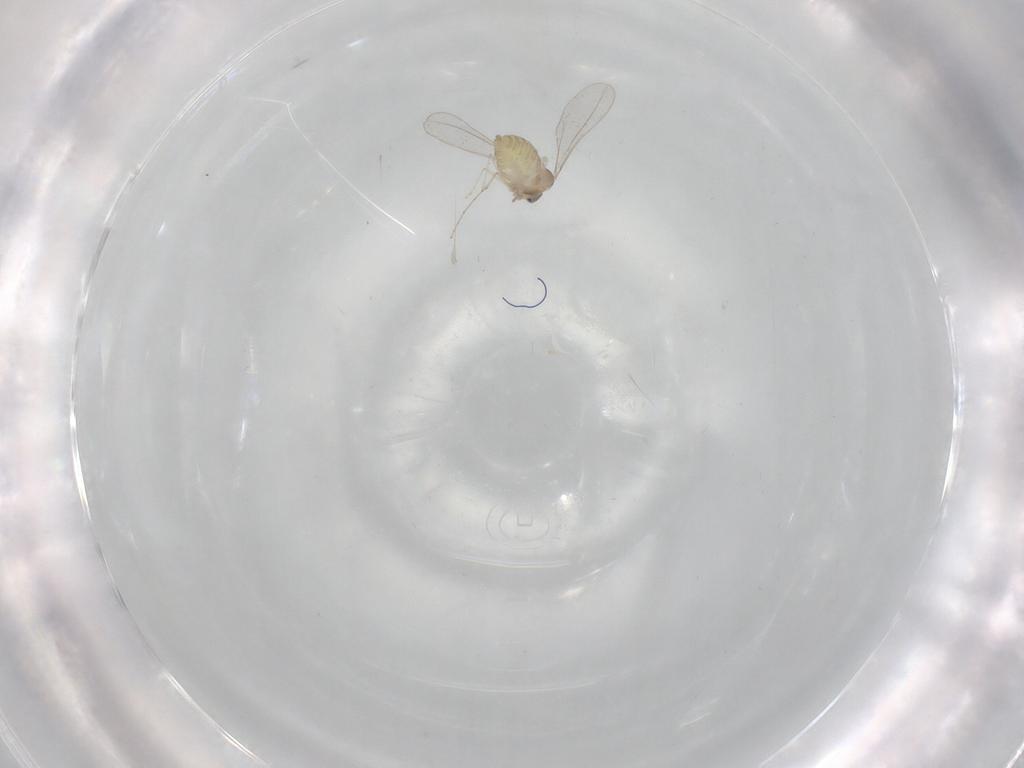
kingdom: Animalia
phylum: Arthropoda
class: Insecta
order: Diptera
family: Cecidomyiidae
